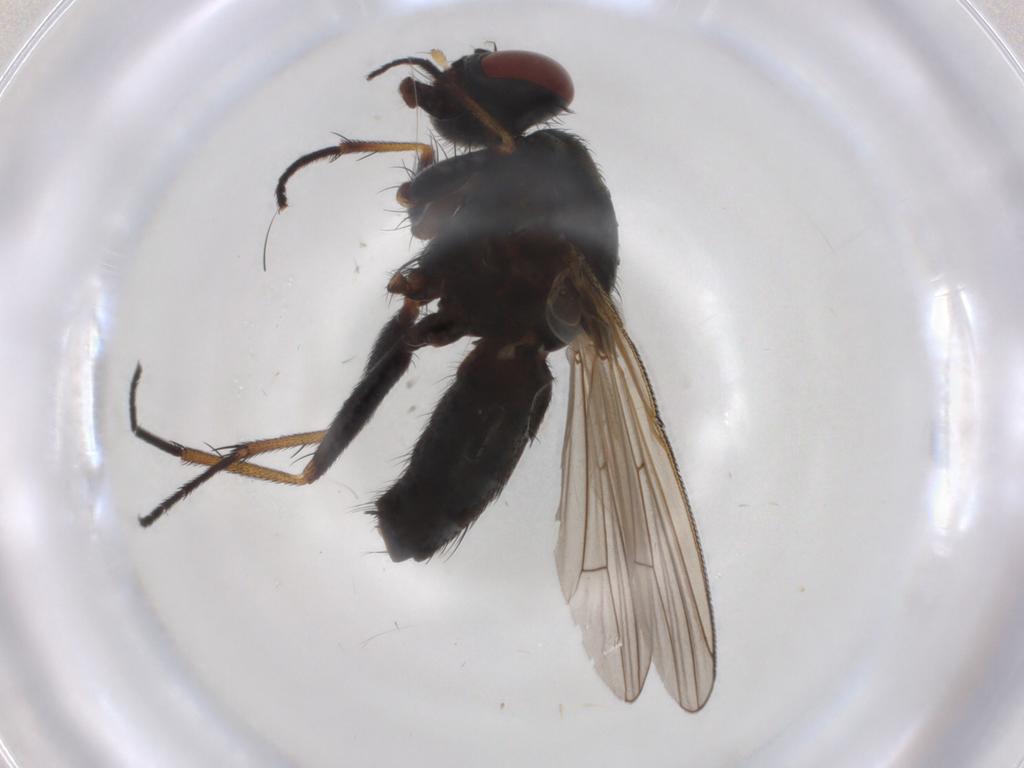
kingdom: Animalia
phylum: Arthropoda
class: Insecta
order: Diptera
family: Muscidae
